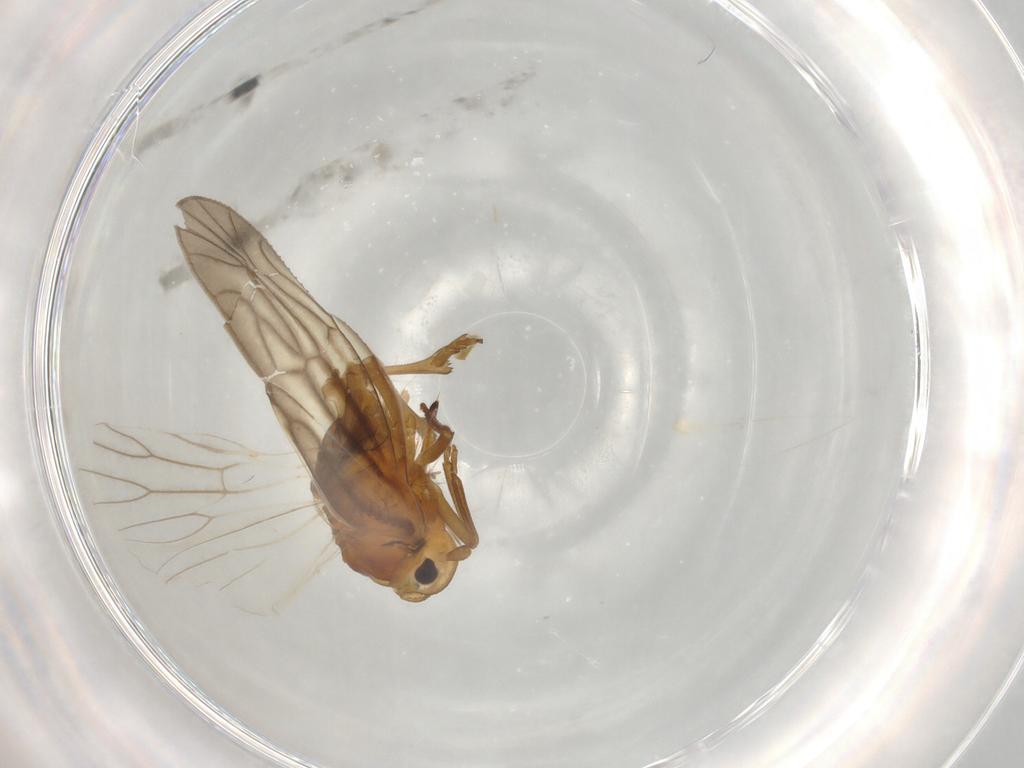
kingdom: Animalia
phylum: Arthropoda
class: Insecta
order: Hemiptera
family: Meenoplidae
